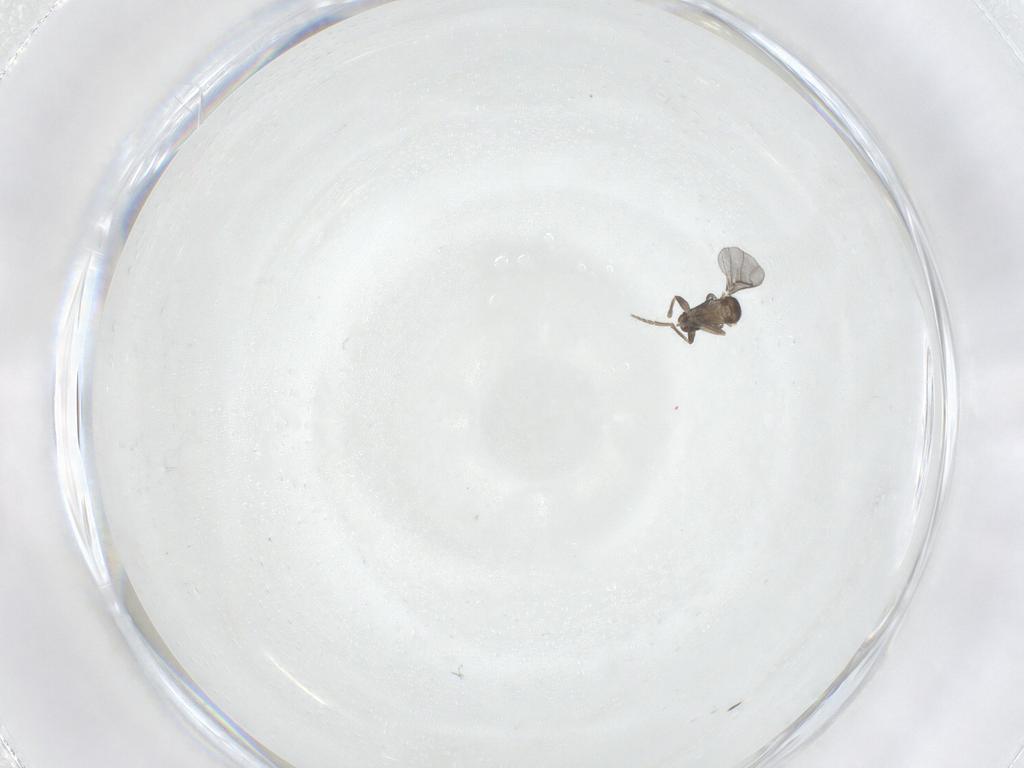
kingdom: Animalia
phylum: Arthropoda
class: Insecta
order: Diptera
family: Phoridae
